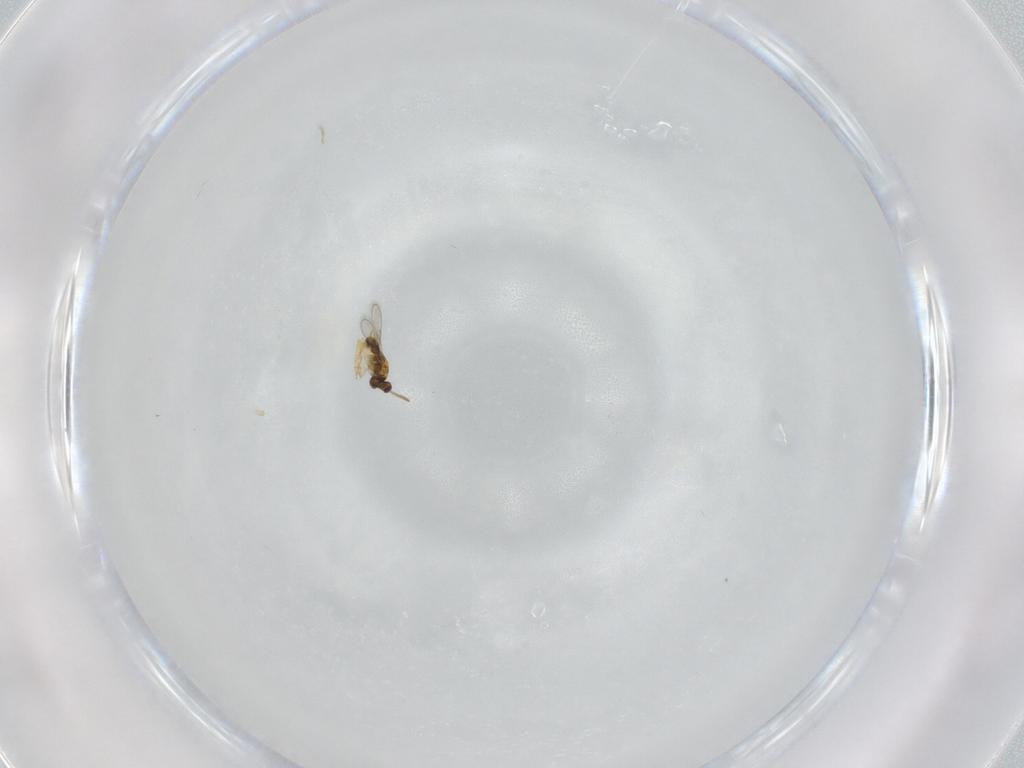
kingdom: Animalia
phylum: Arthropoda
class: Insecta
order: Hymenoptera
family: Aphelinidae
